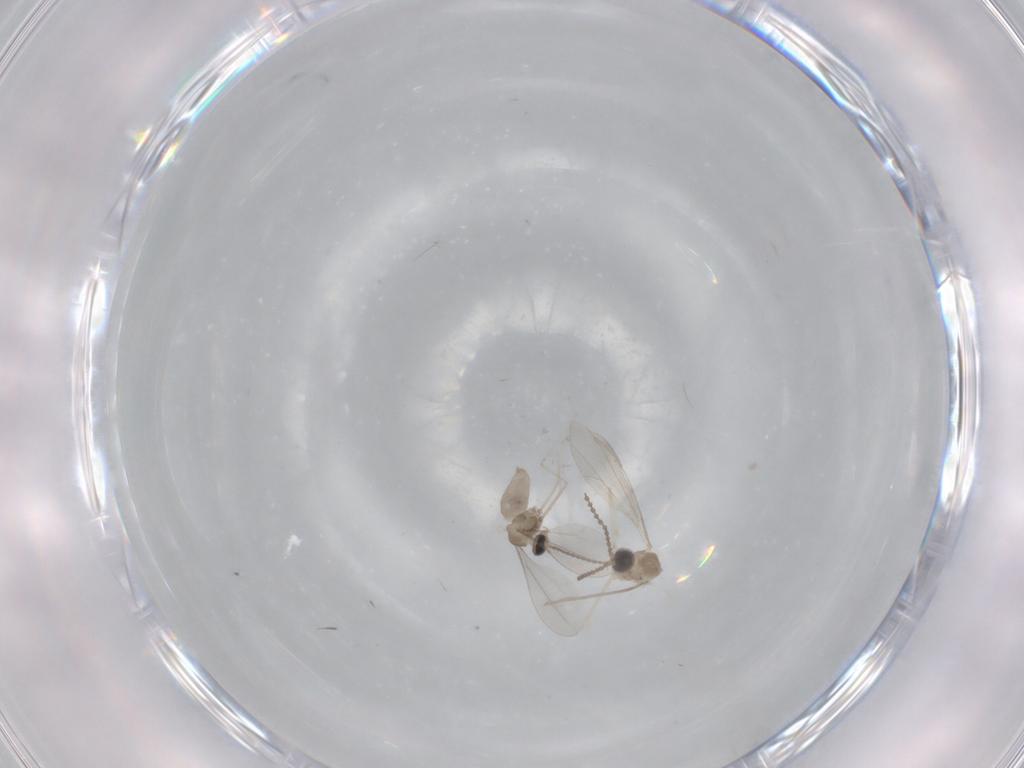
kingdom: Animalia
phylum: Arthropoda
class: Insecta
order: Diptera
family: Cecidomyiidae
